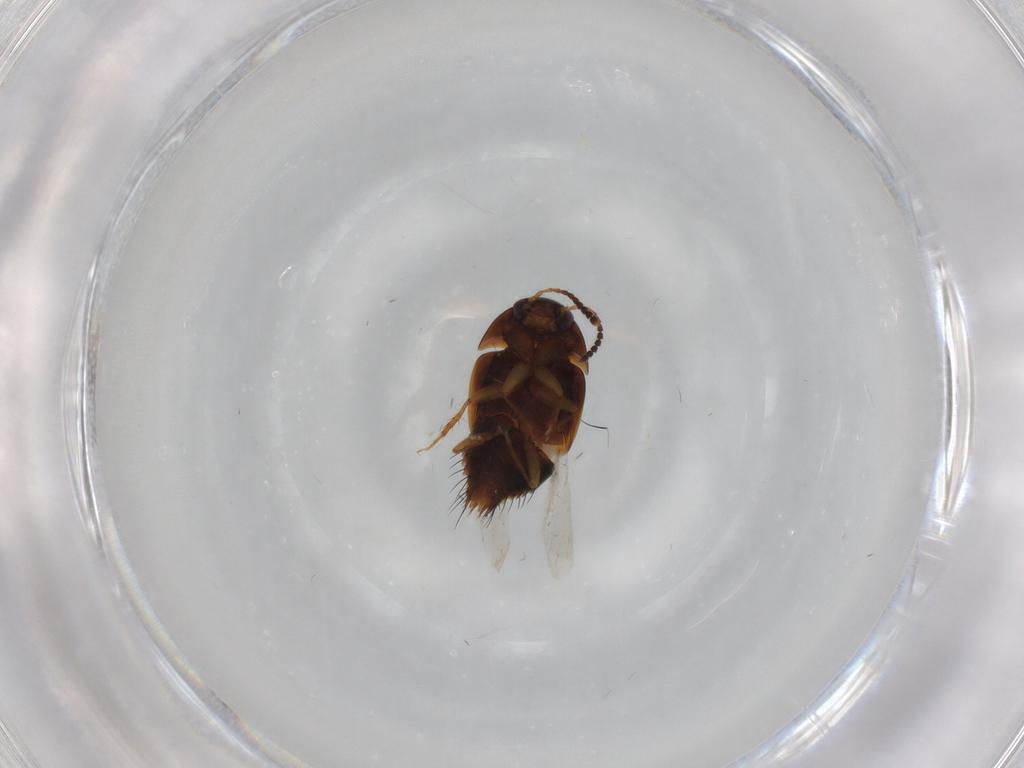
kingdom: Animalia
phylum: Arthropoda
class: Insecta
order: Coleoptera
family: Staphylinidae
